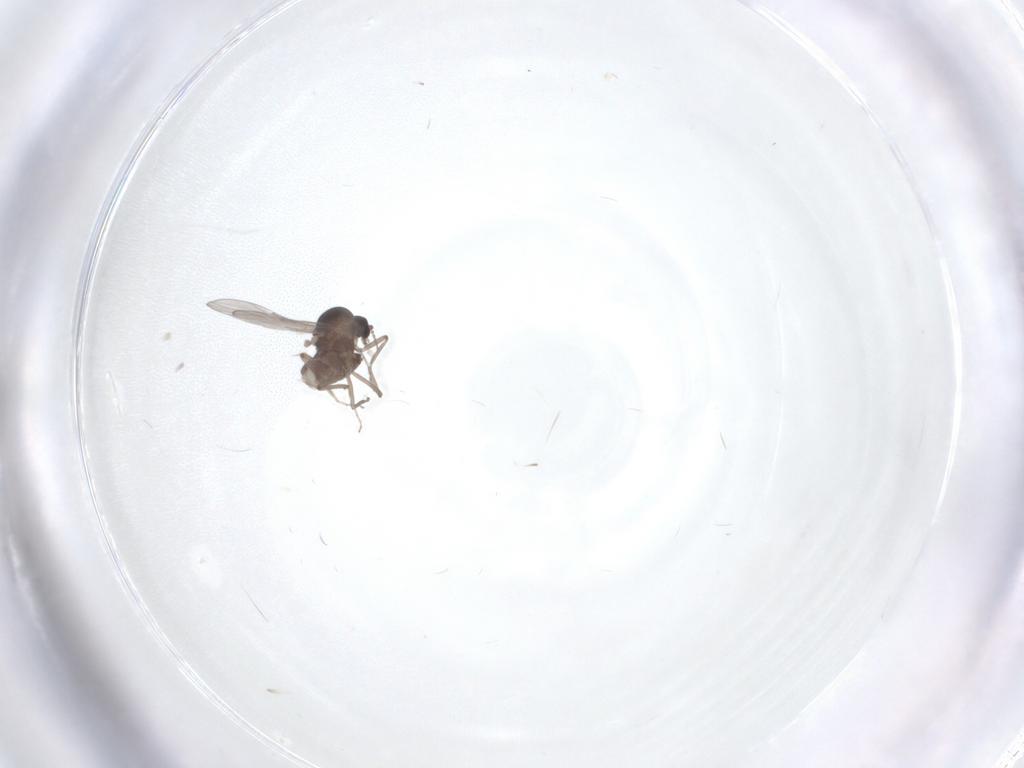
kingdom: Animalia
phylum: Arthropoda
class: Insecta
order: Diptera
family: Ceratopogonidae
